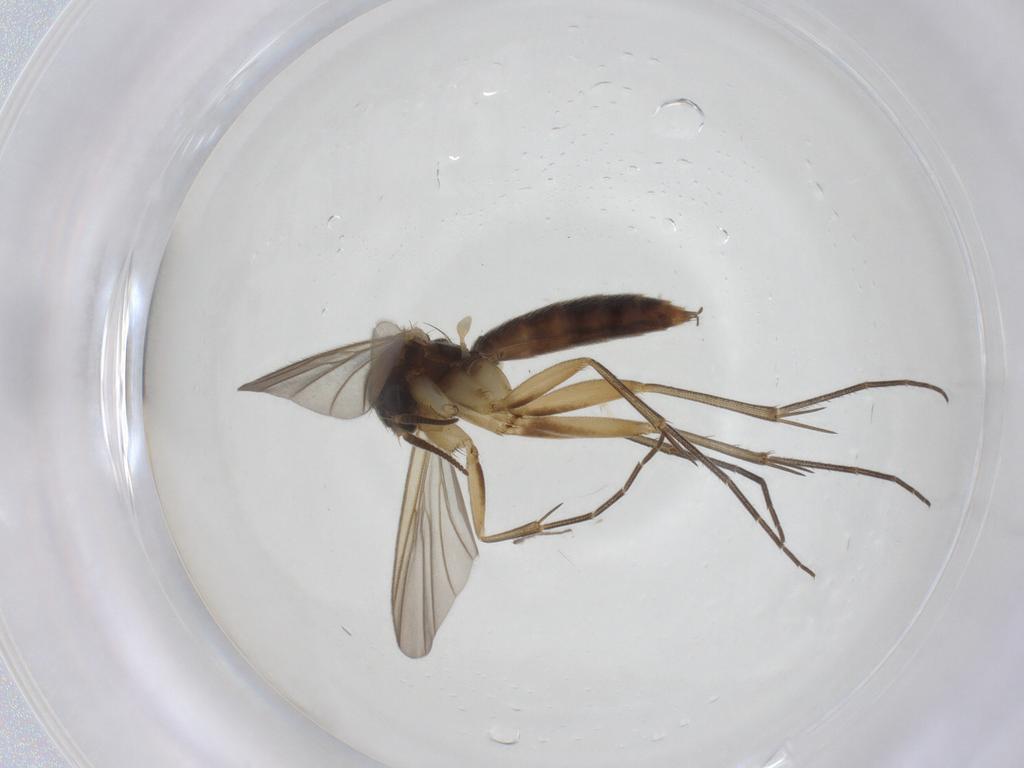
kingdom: Animalia
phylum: Arthropoda
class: Insecta
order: Diptera
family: Chironomidae
